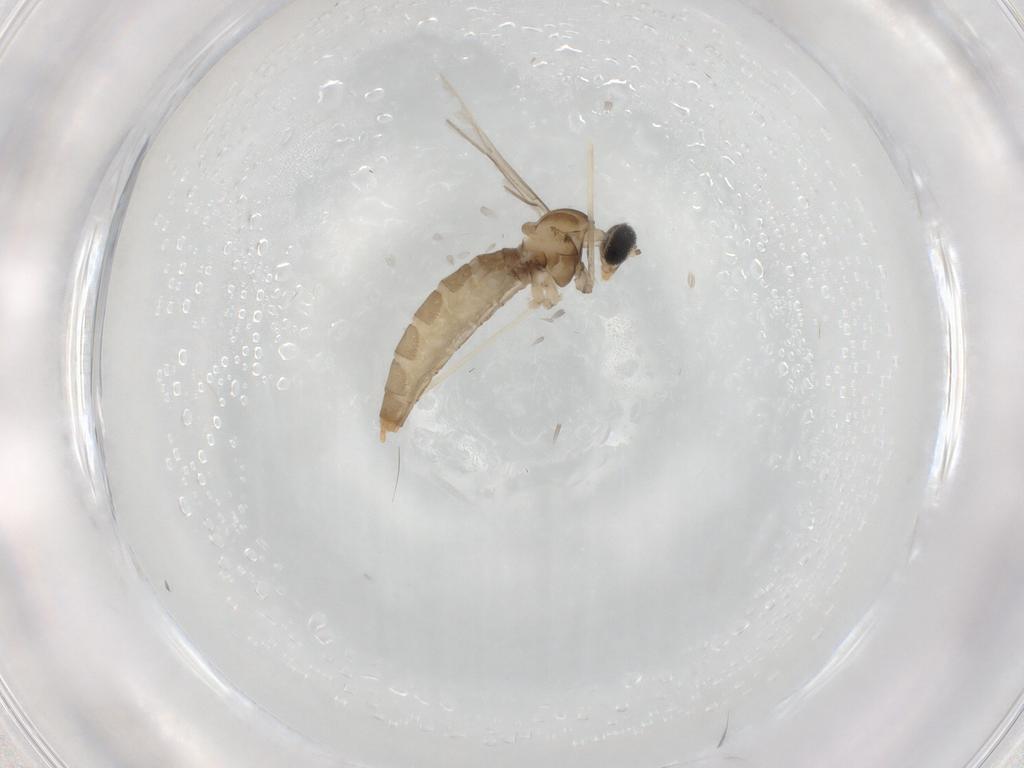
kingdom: Animalia
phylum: Arthropoda
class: Insecta
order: Diptera
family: Cecidomyiidae
